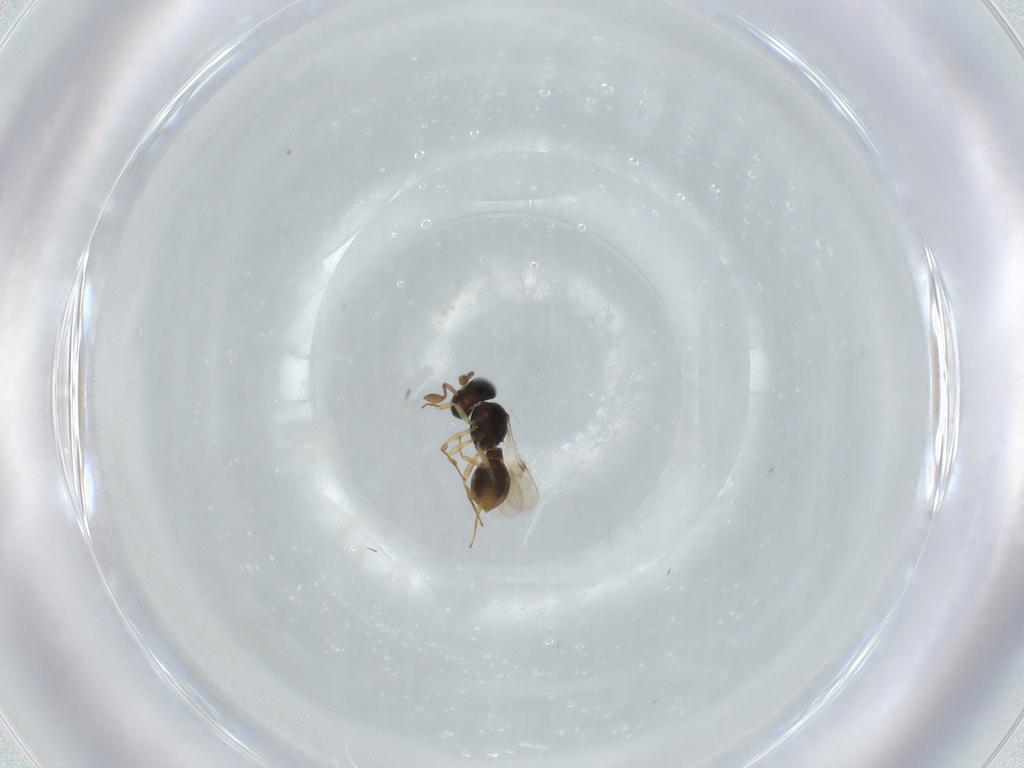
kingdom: Animalia
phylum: Arthropoda
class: Insecta
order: Hymenoptera
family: Scelionidae
